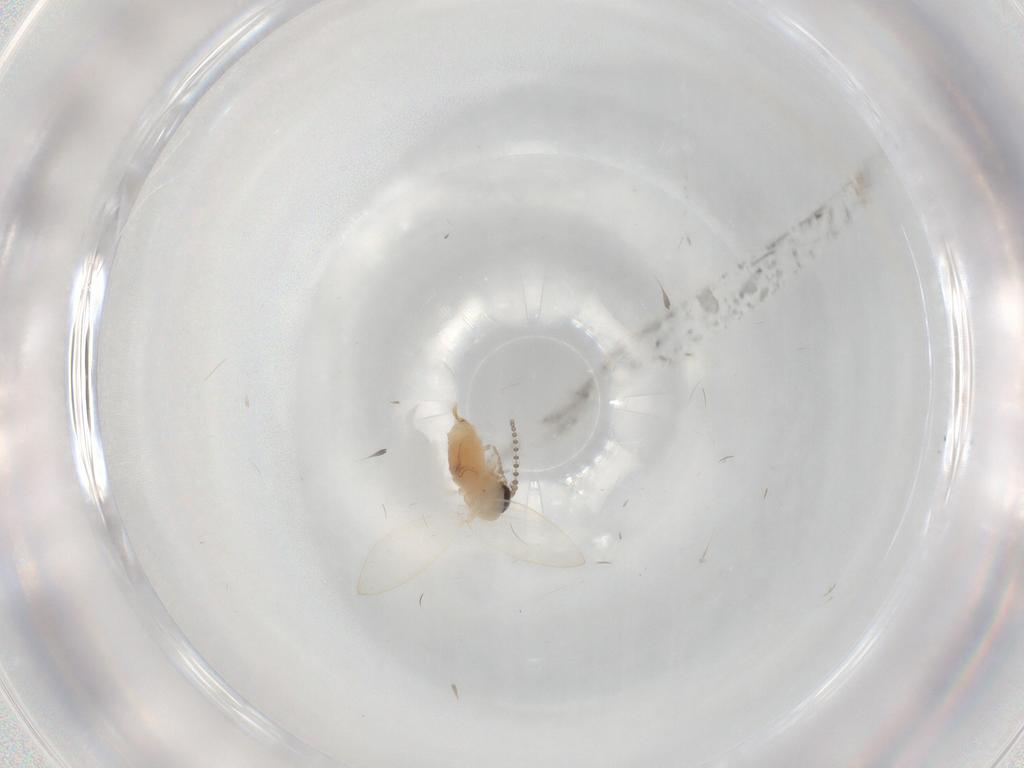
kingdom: Animalia
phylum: Arthropoda
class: Insecta
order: Diptera
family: Psychodidae
